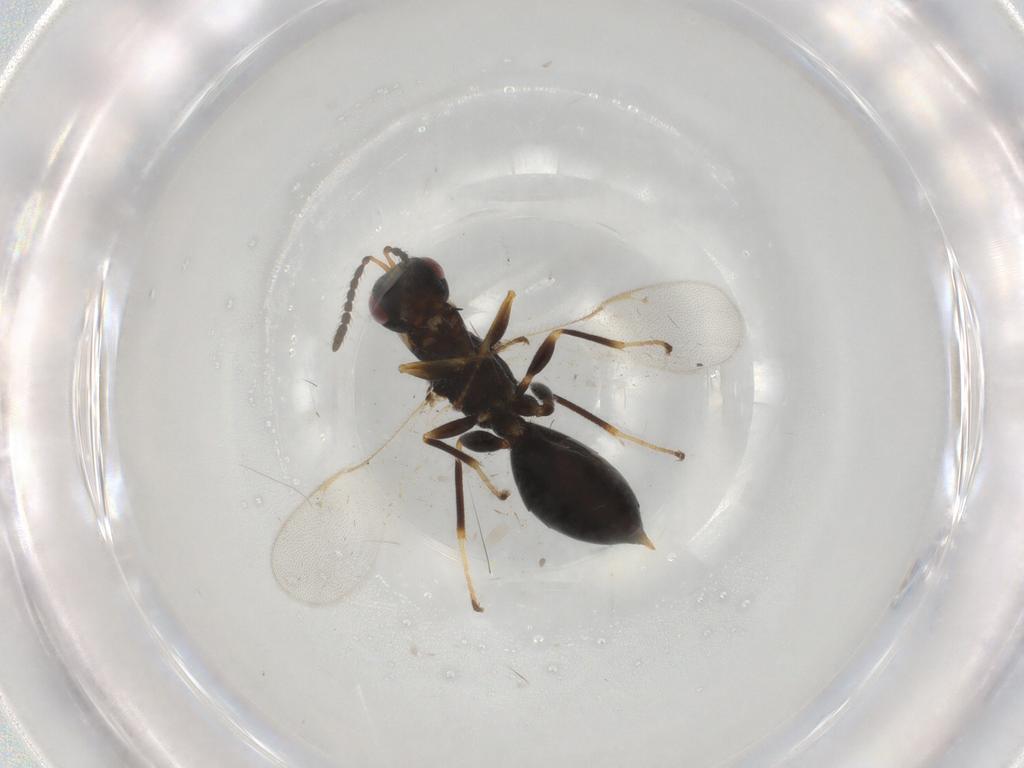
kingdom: Animalia
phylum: Arthropoda
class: Insecta
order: Hymenoptera
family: Braconidae
